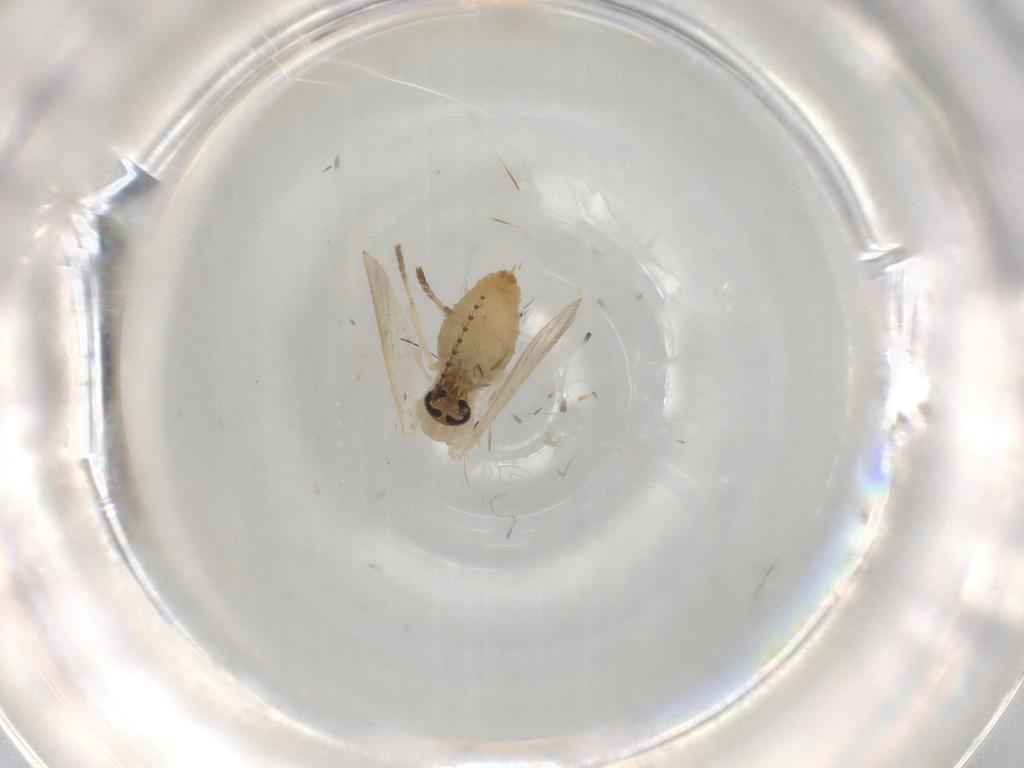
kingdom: Animalia
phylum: Arthropoda
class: Insecta
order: Diptera
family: Psychodidae
